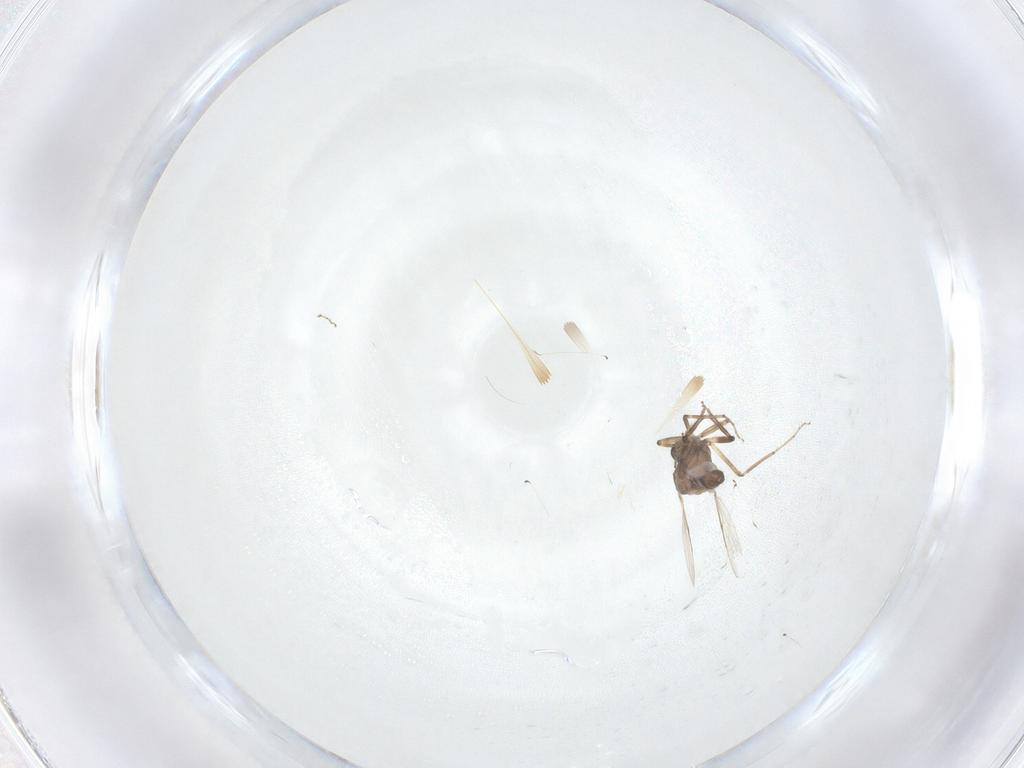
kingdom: Animalia
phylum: Arthropoda
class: Insecta
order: Diptera
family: Ceratopogonidae
